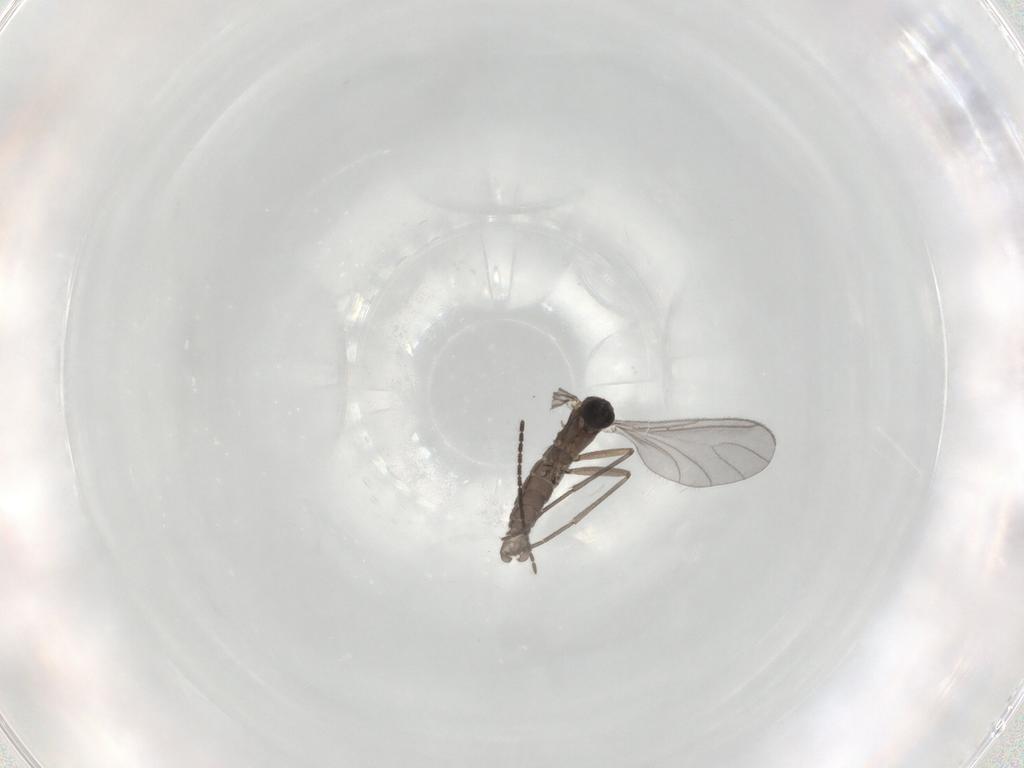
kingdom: Animalia
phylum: Arthropoda
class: Insecta
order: Diptera
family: Sciaridae
